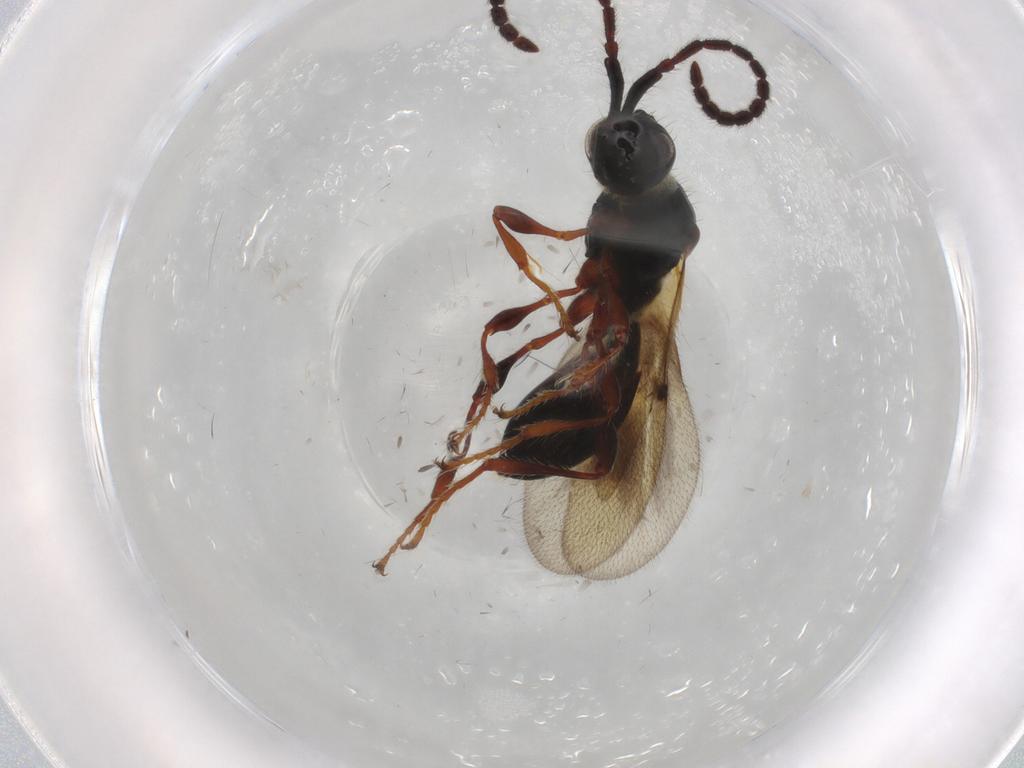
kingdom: Animalia
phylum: Arthropoda
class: Insecta
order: Hymenoptera
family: Diapriidae
